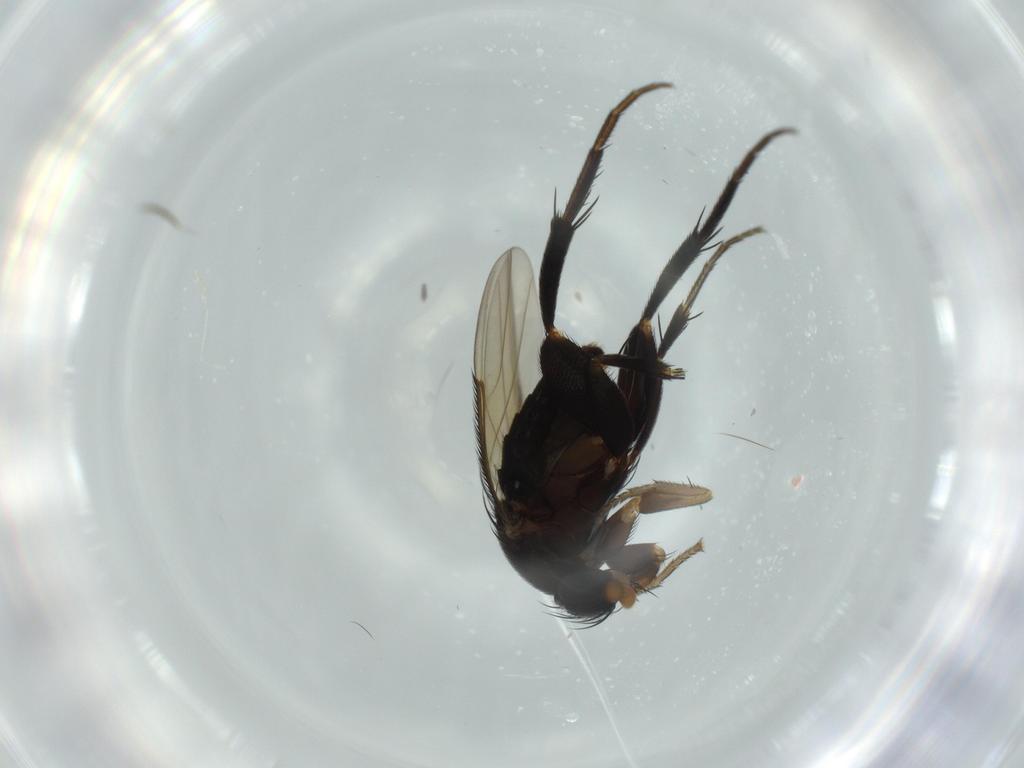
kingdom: Animalia
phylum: Arthropoda
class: Insecta
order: Diptera
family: Phoridae
